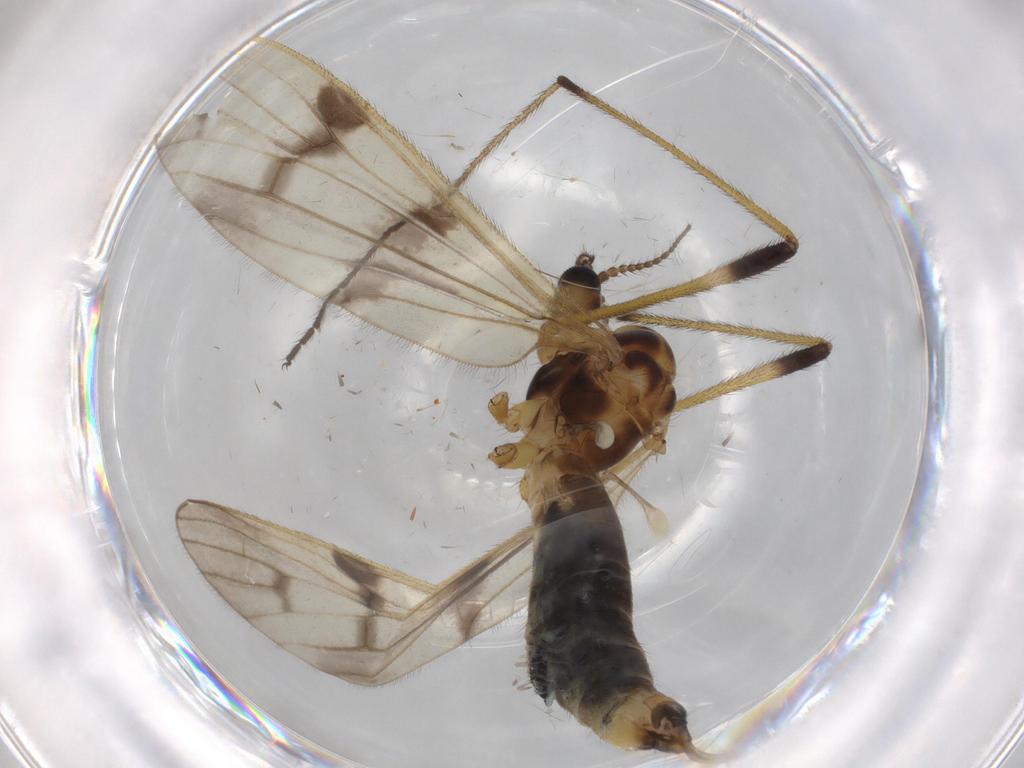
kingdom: Animalia
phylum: Arthropoda
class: Insecta
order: Diptera
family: Limoniidae
